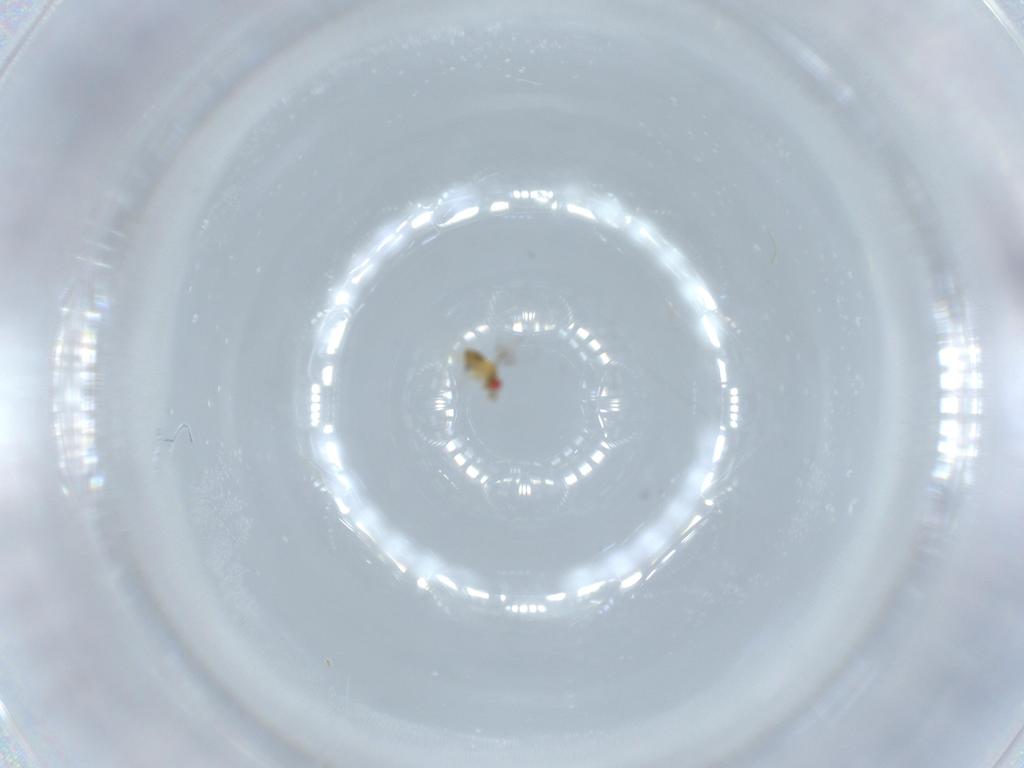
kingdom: Animalia
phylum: Arthropoda
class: Insecta
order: Hymenoptera
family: Trichogrammatidae
